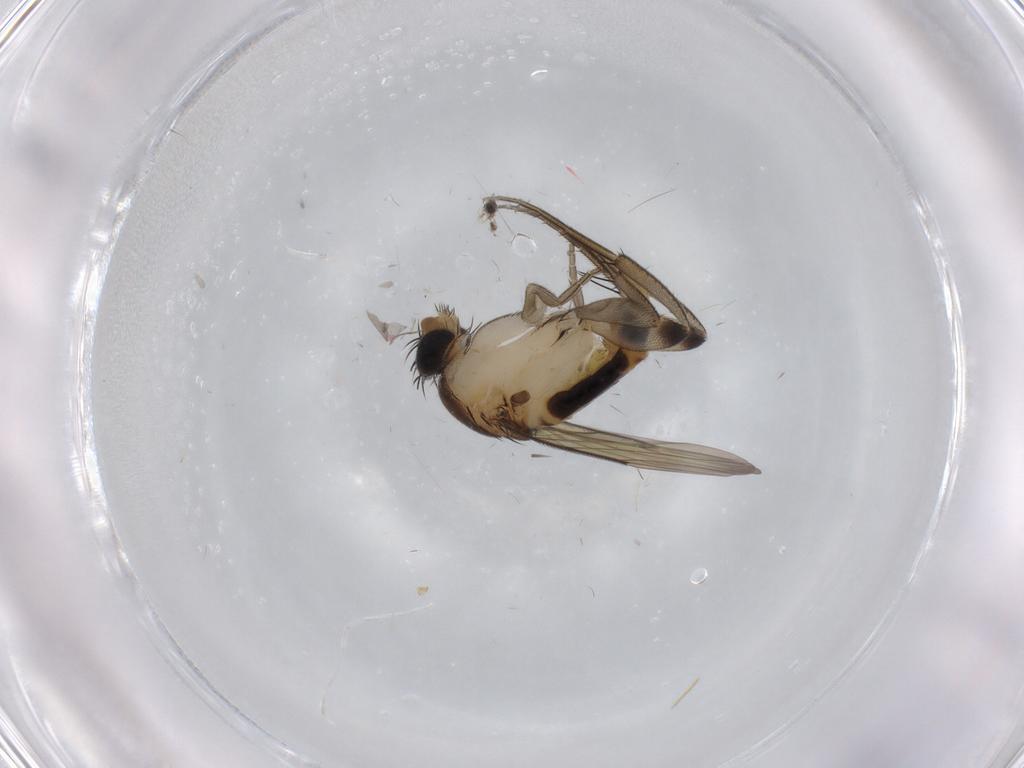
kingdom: Animalia
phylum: Arthropoda
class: Insecta
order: Diptera
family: Phoridae
